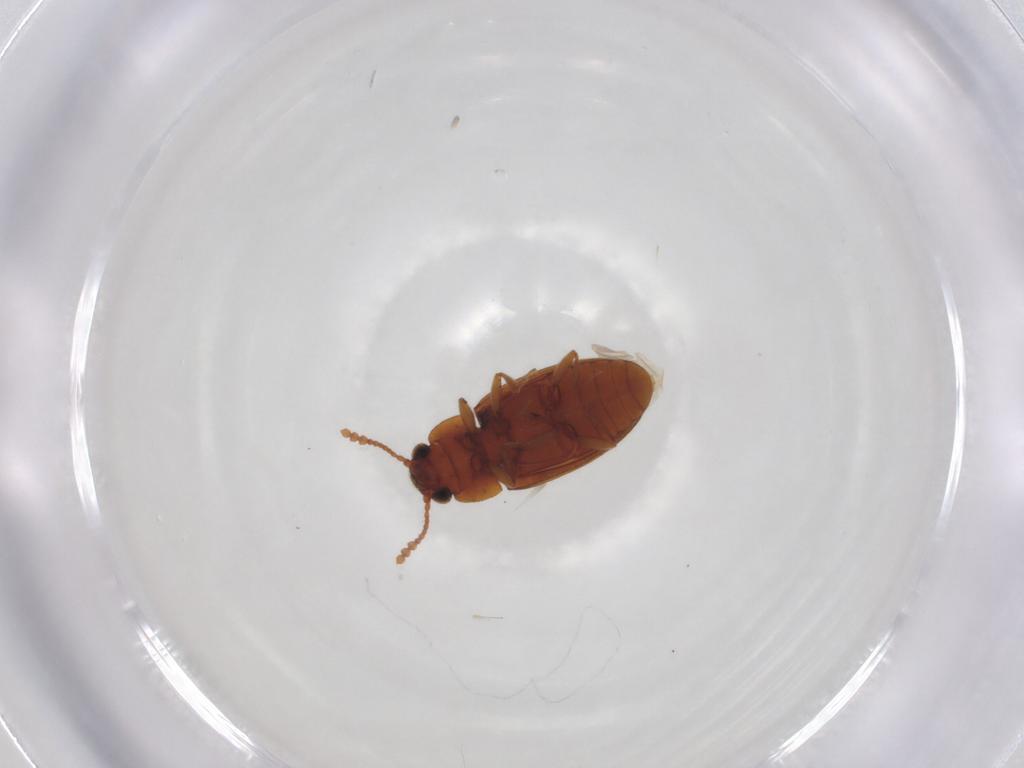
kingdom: Animalia
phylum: Arthropoda
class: Insecta
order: Coleoptera
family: Erotylidae
